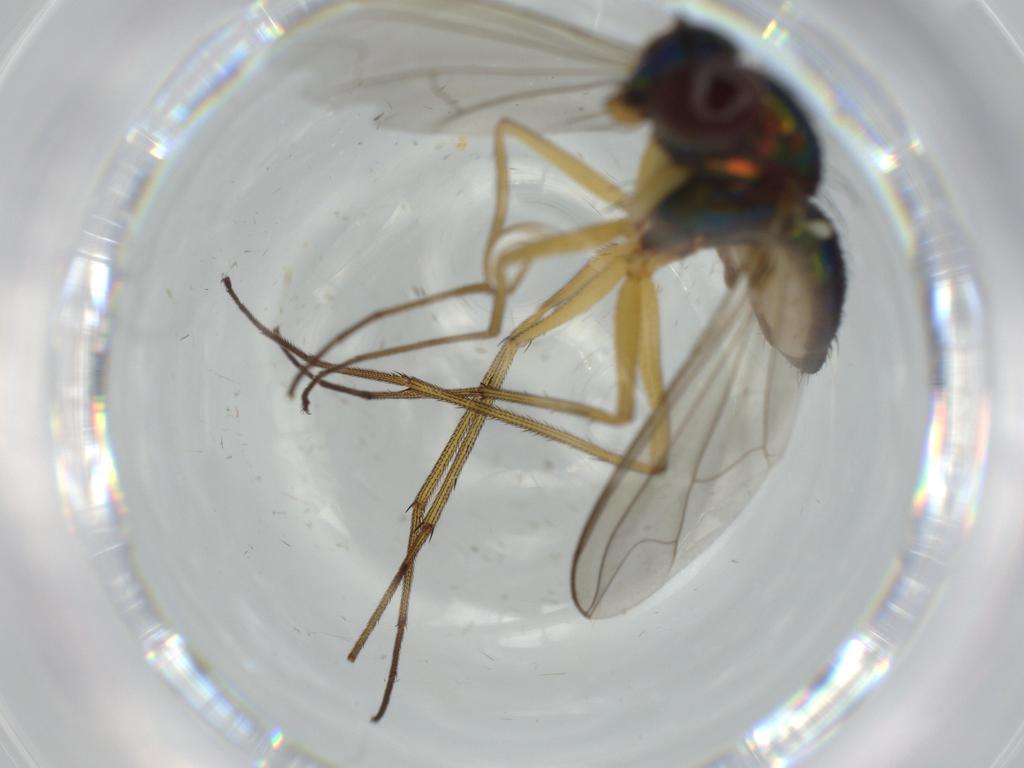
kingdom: Animalia
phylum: Arthropoda
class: Insecta
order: Diptera
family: Dolichopodidae
